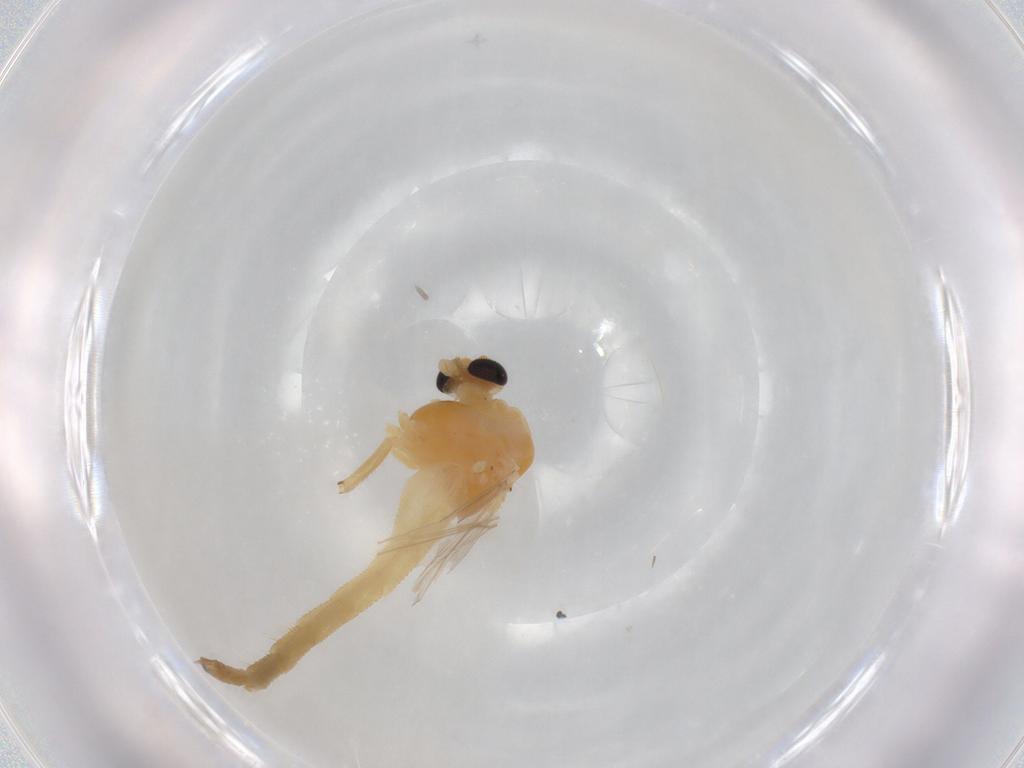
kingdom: Animalia
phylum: Arthropoda
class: Insecta
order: Diptera
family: Chironomidae
